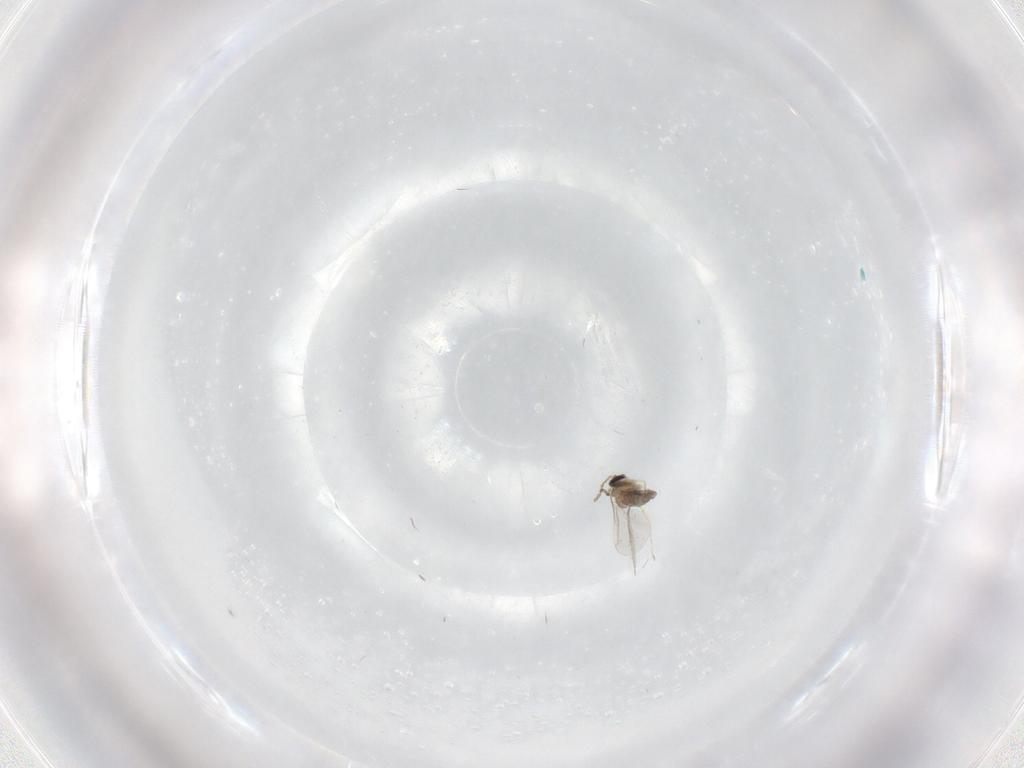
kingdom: Animalia
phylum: Arthropoda
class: Insecta
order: Diptera
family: Cecidomyiidae
